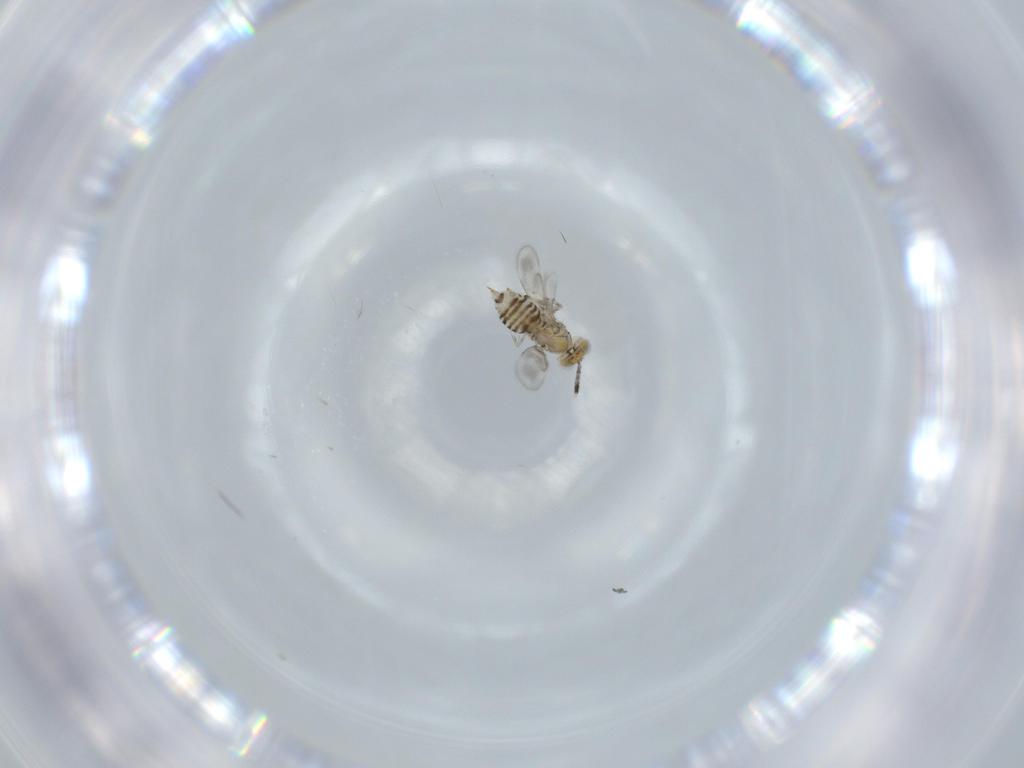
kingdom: Animalia
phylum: Arthropoda
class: Insecta
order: Hymenoptera
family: Aphelinidae
